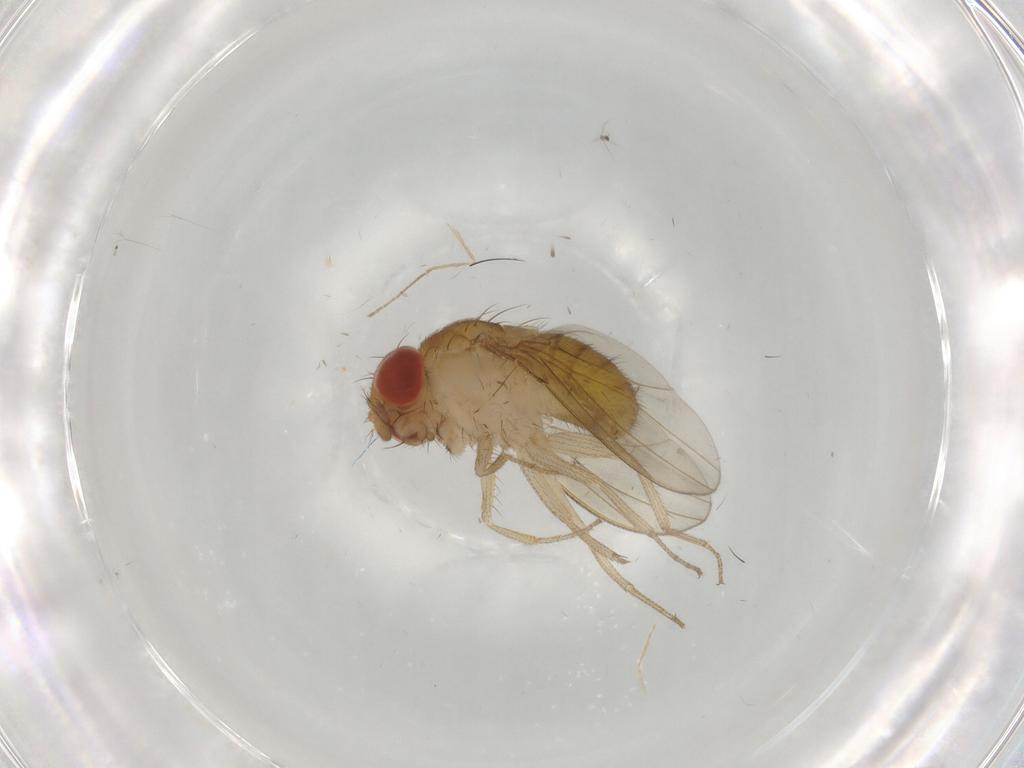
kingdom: Animalia
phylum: Arthropoda
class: Insecta
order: Diptera
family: Drosophilidae
